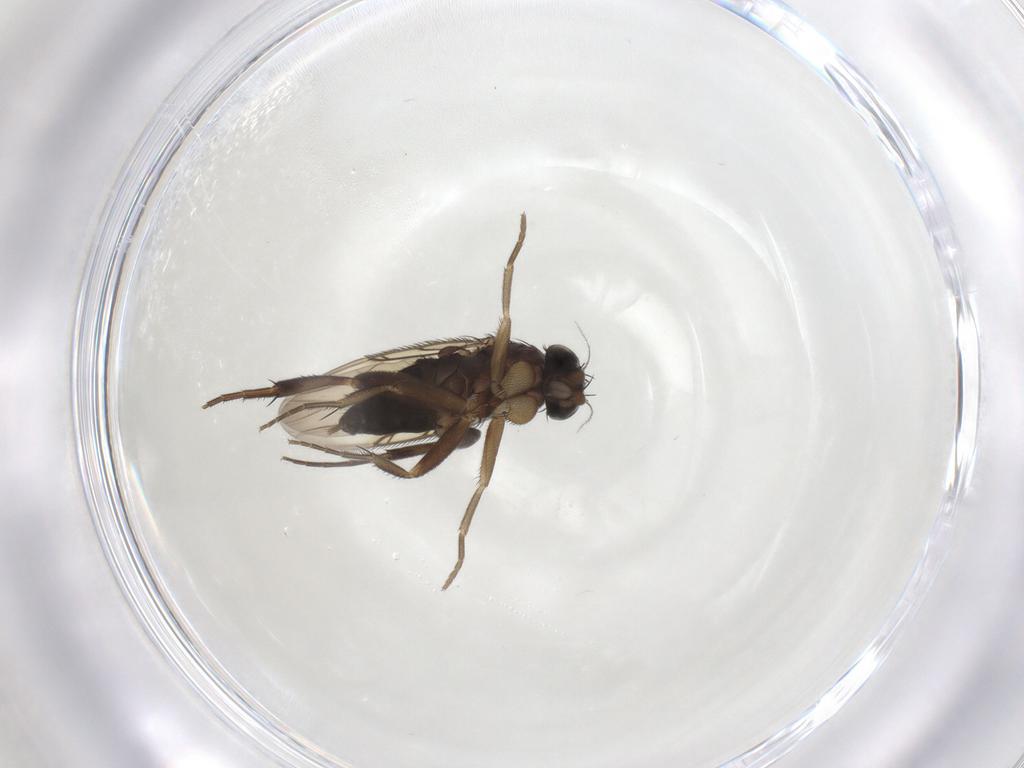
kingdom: Animalia
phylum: Arthropoda
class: Insecta
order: Diptera
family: Phoridae
